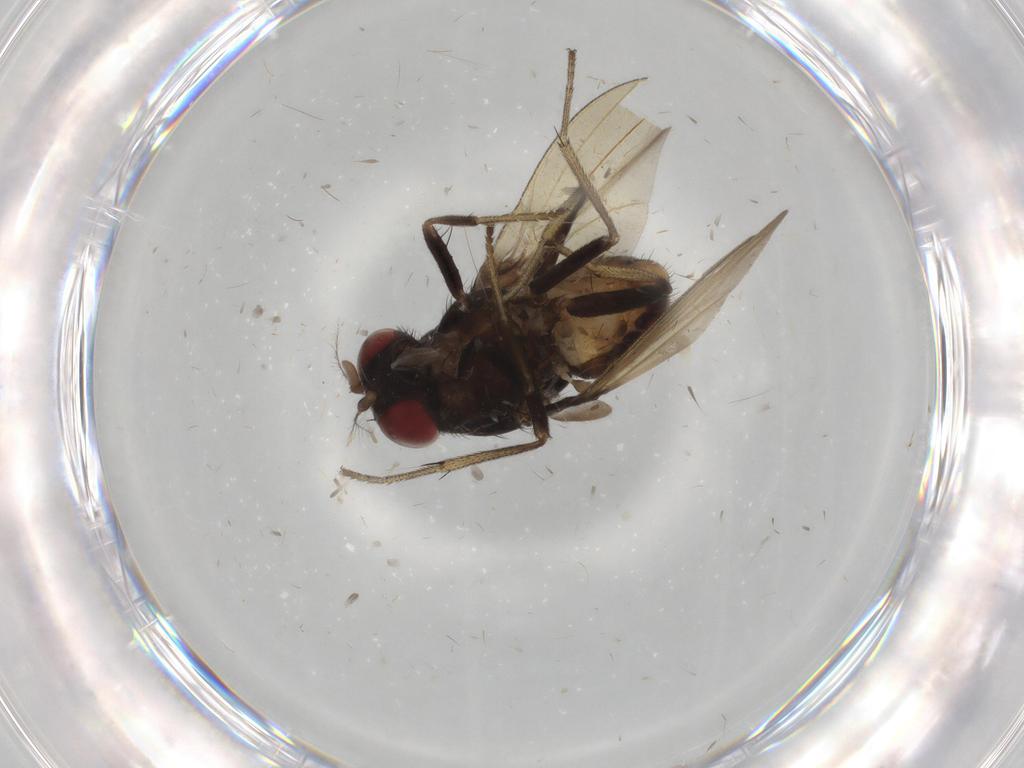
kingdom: Animalia
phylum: Arthropoda
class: Insecta
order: Diptera
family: Lauxaniidae
